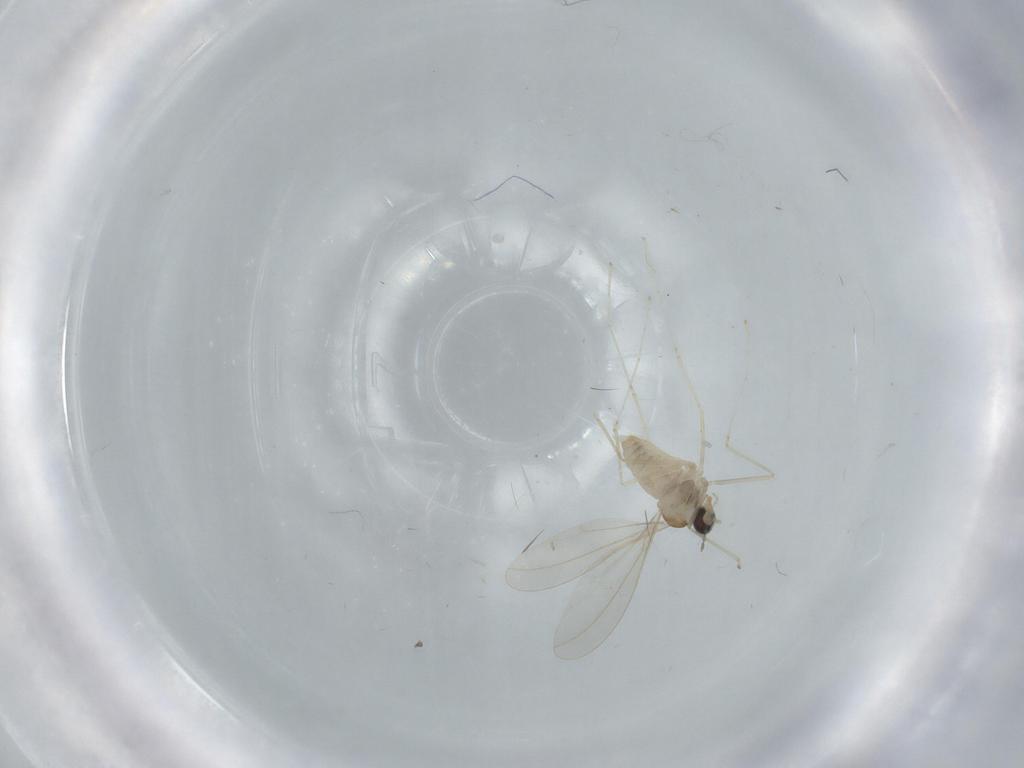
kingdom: Animalia
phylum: Arthropoda
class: Insecta
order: Diptera
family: Cecidomyiidae
